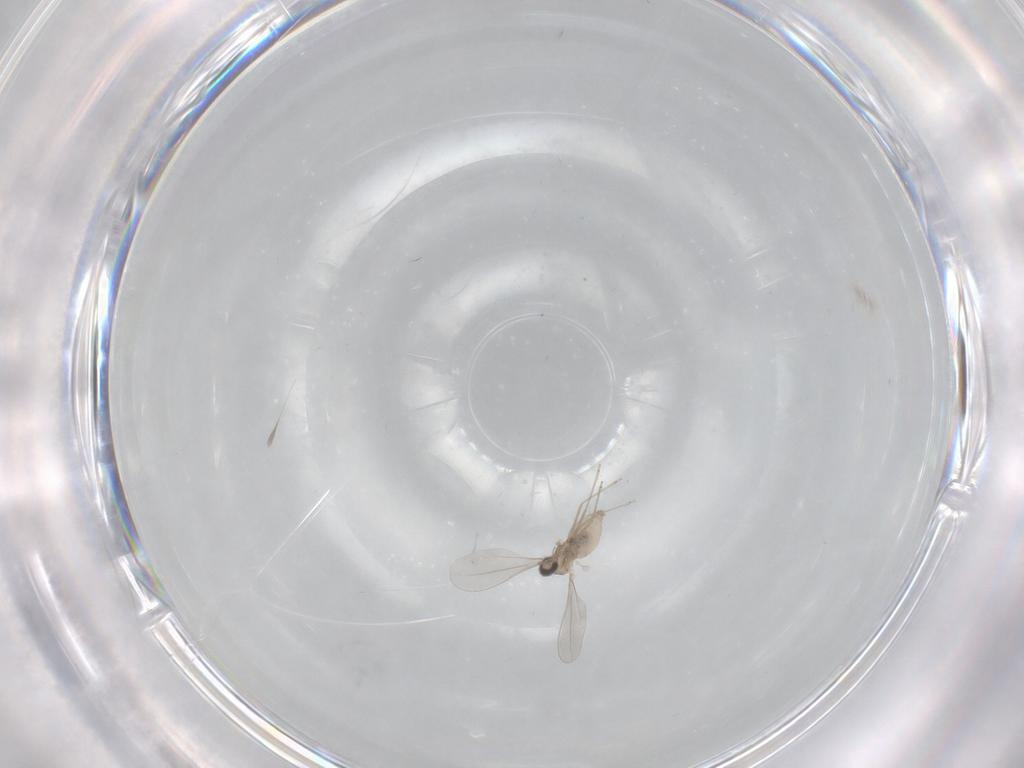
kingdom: Animalia
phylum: Arthropoda
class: Insecta
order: Diptera
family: Cecidomyiidae
